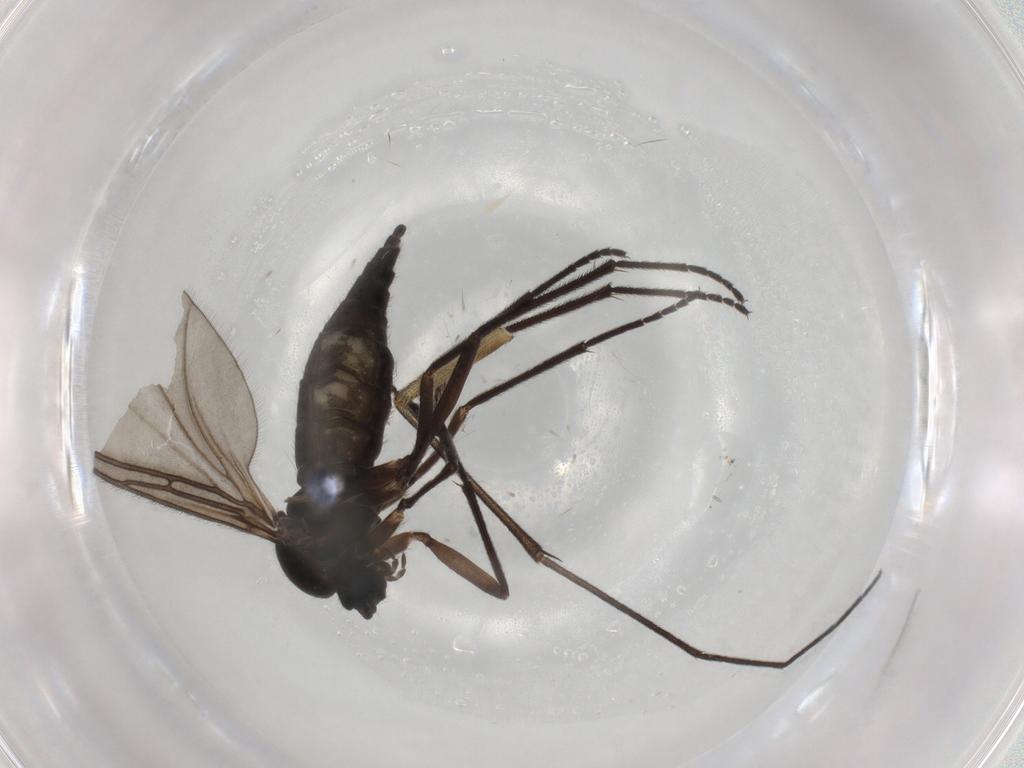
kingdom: Animalia
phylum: Arthropoda
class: Insecta
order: Diptera
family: Sciaridae
